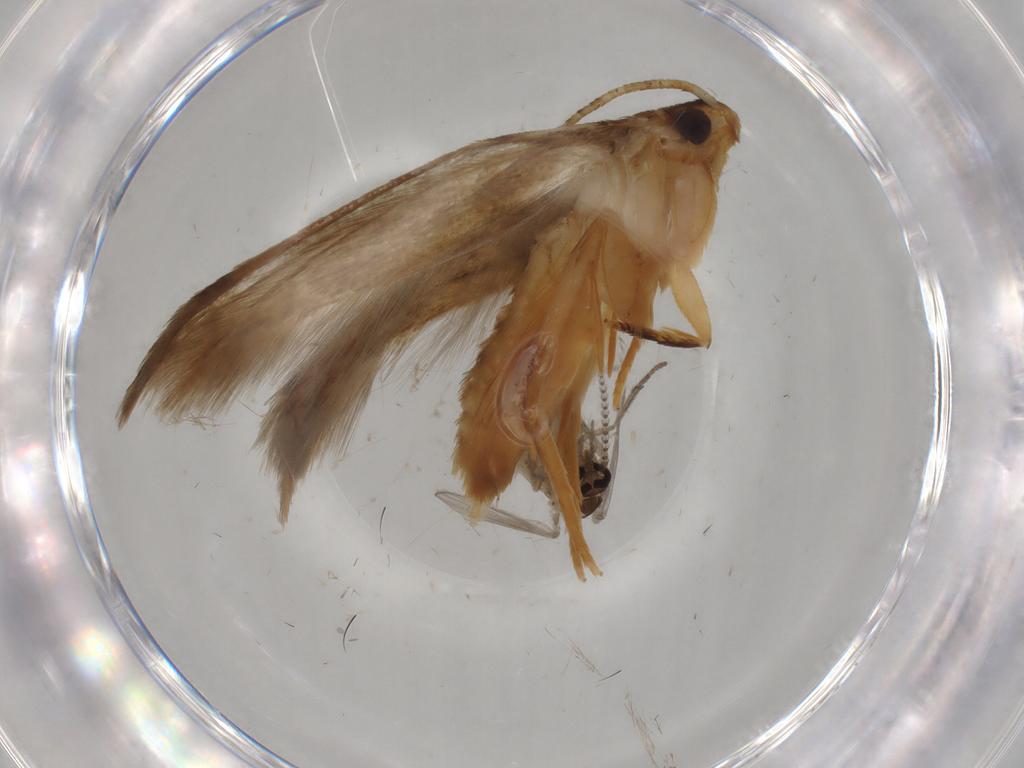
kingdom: Animalia
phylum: Arthropoda
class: Insecta
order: Lepidoptera
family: Tineidae
